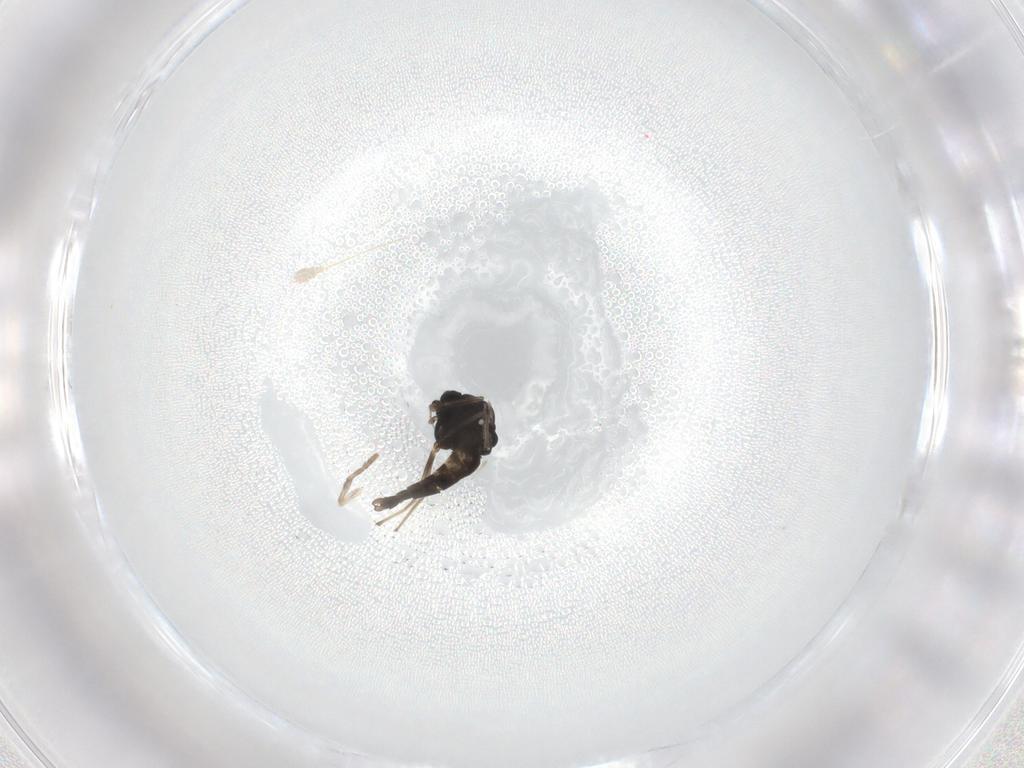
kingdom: Animalia
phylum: Arthropoda
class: Insecta
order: Diptera
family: Chironomidae
